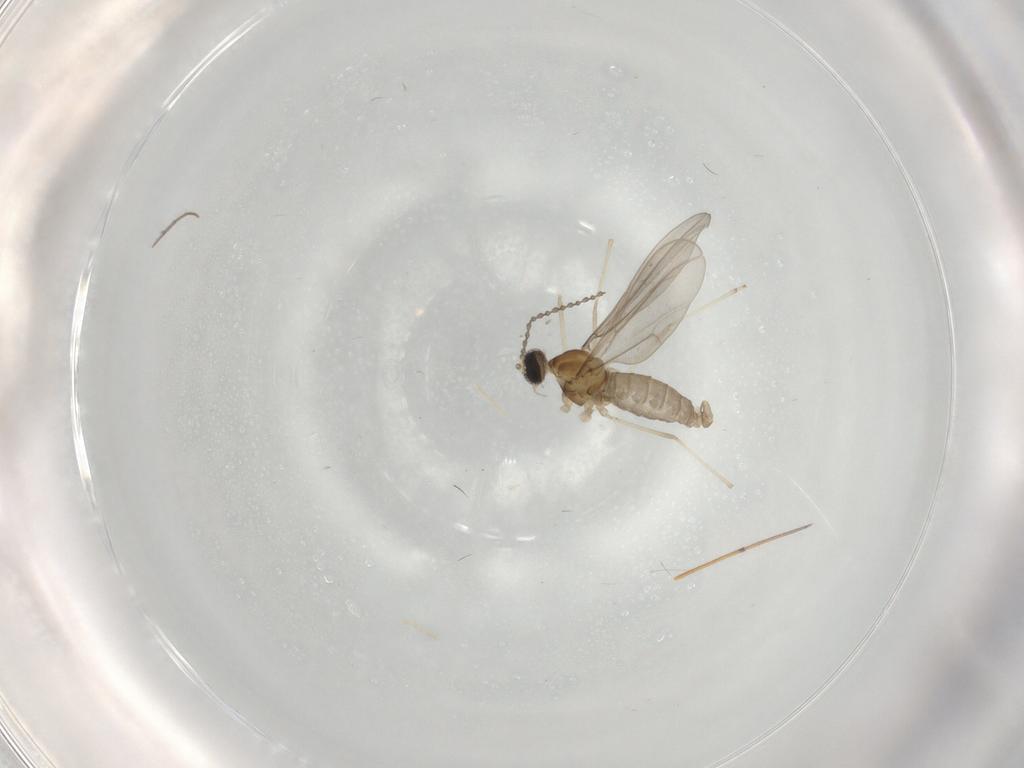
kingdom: Animalia
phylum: Arthropoda
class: Insecta
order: Diptera
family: Cecidomyiidae
